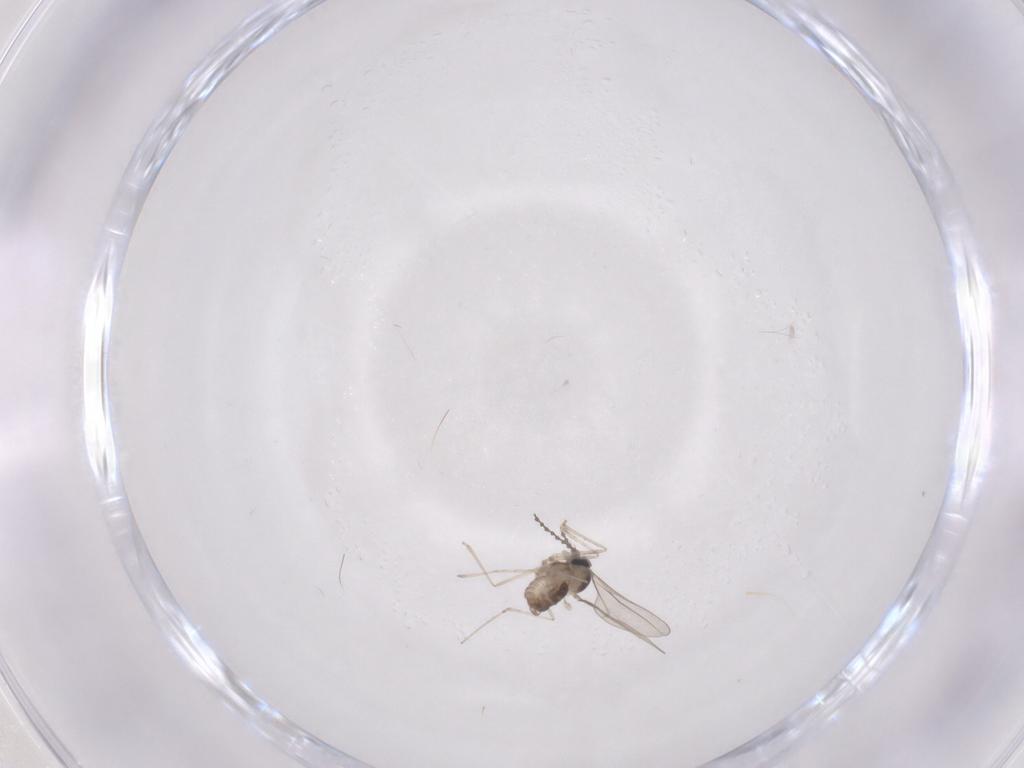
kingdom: Animalia
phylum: Arthropoda
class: Insecta
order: Diptera
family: Cecidomyiidae
